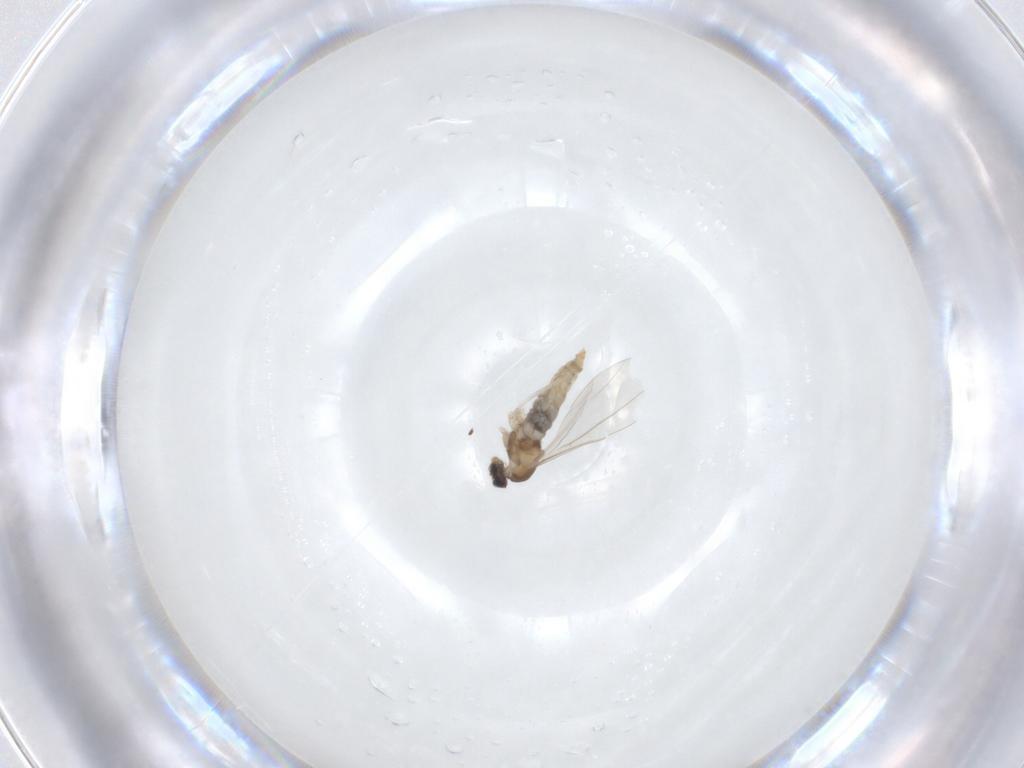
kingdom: Animalia
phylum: Arthropoda
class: Insecta
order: Diptera
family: Cecidomyiidae
